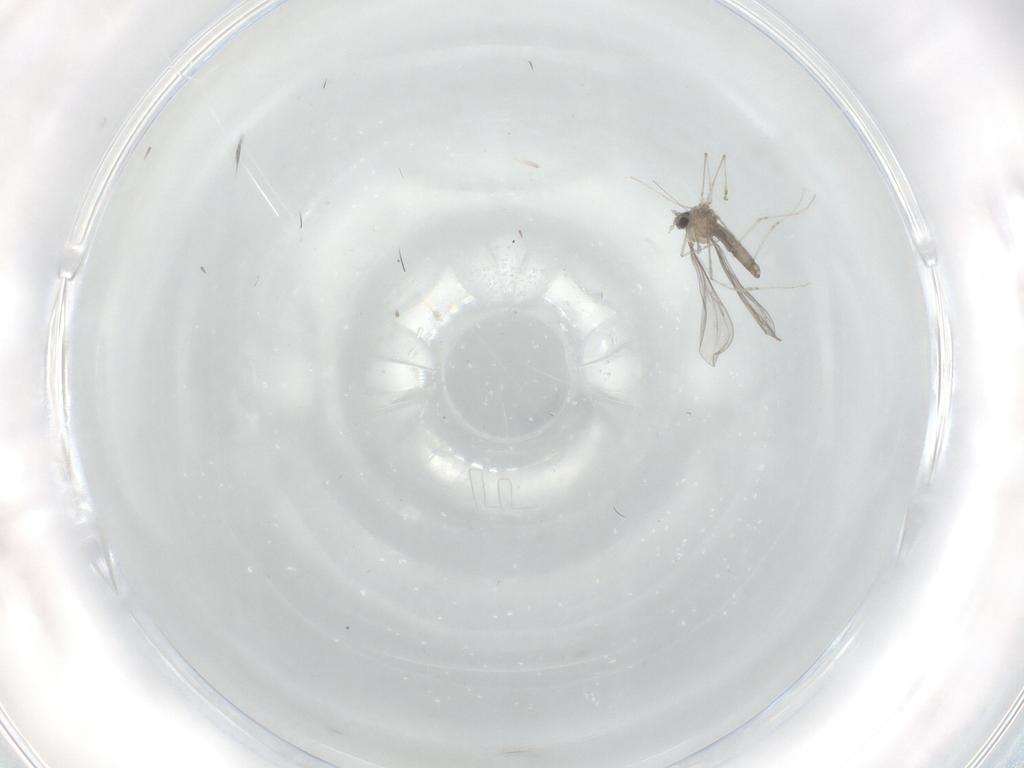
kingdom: Animalia
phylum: Arthropoda
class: Insecta
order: Diptera
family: Cecidomyiidae
